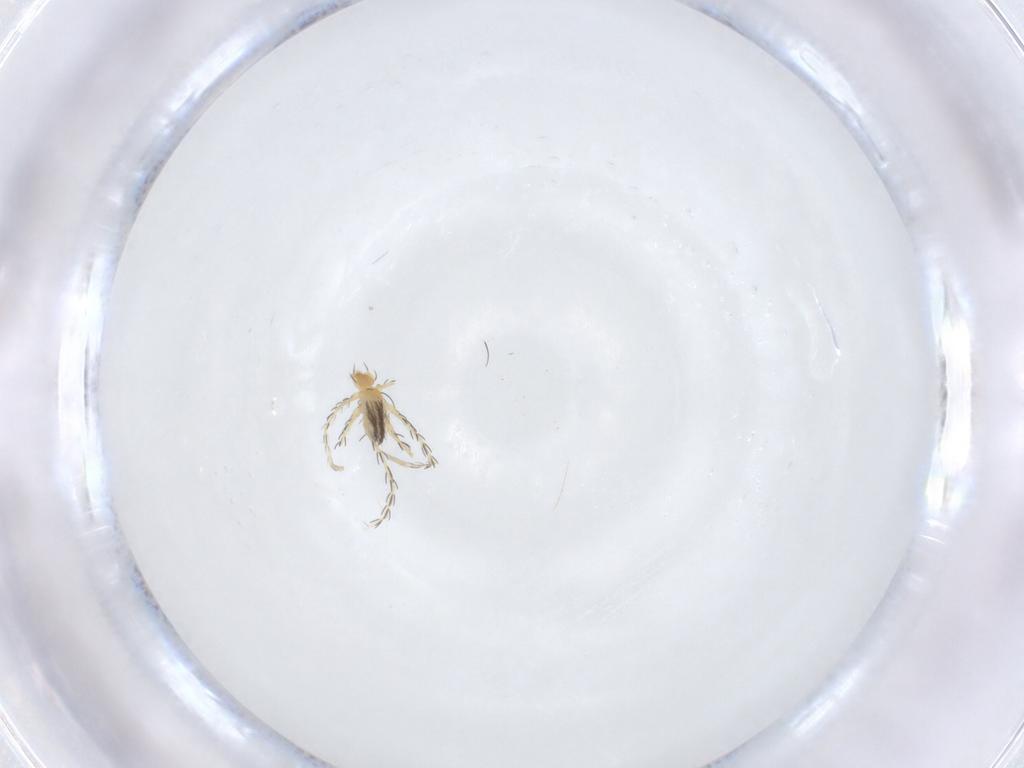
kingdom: Animalia
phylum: Arthropoda
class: Arachnida
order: Trombidiformes
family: Erythraeidae
